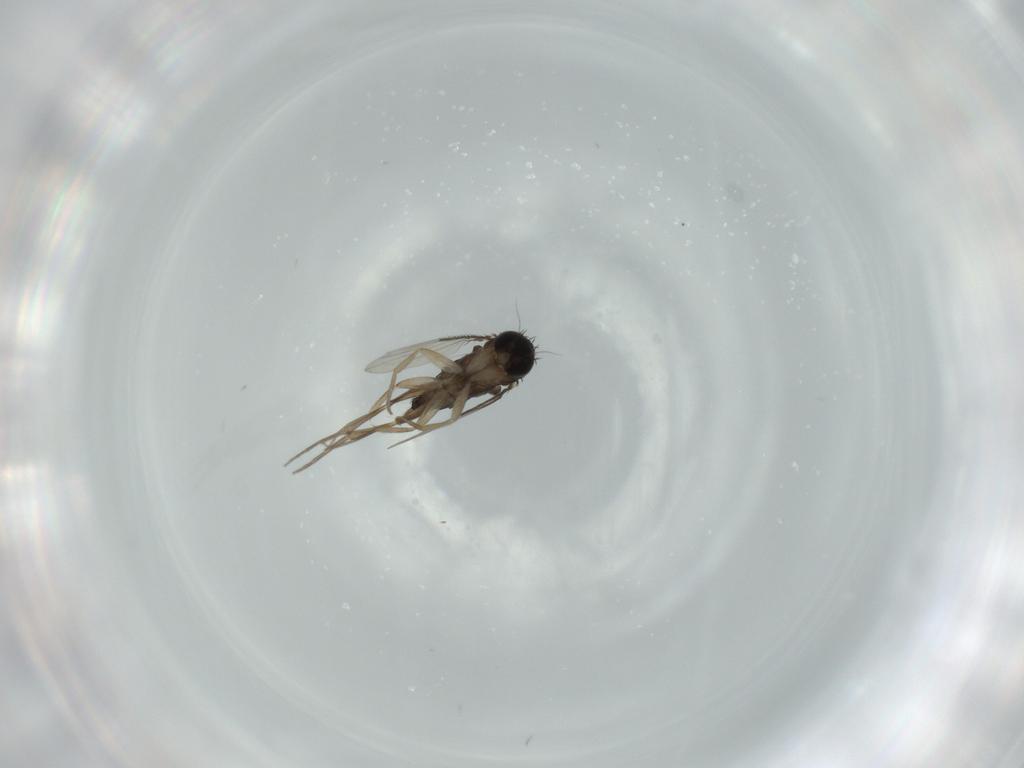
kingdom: Animalia
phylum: Arthropoda
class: Insecta
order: Diptera
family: Phoridae
